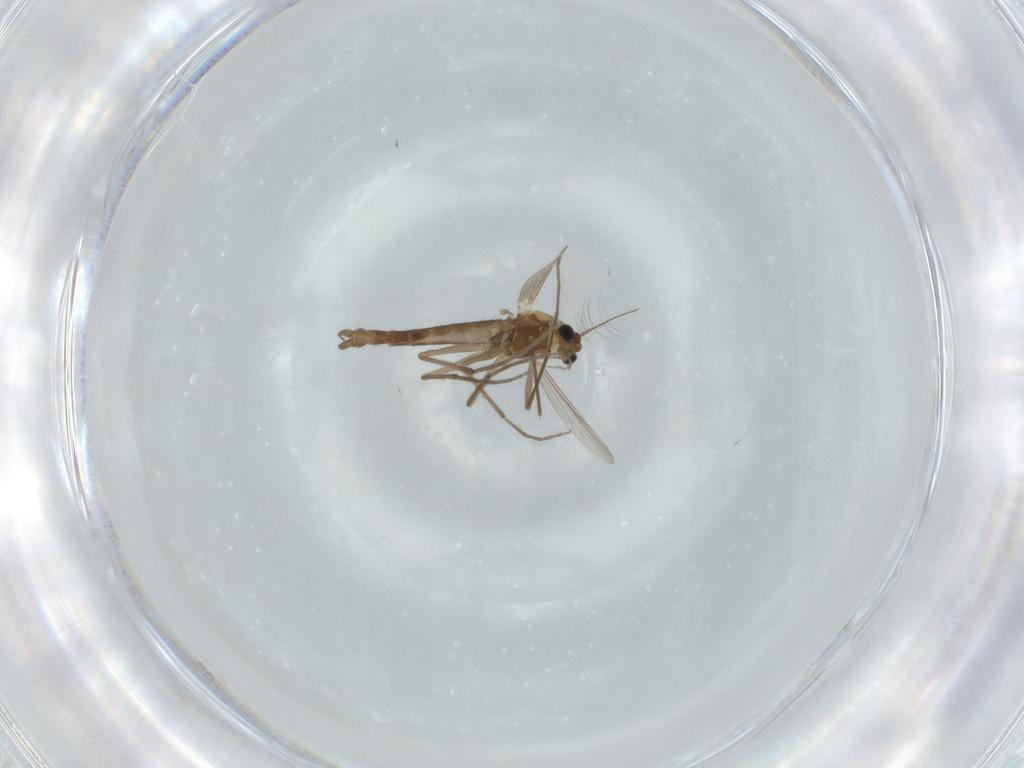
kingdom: Animalia
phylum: Arthropoda
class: Insecta
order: Diptera
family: Chironomidae
